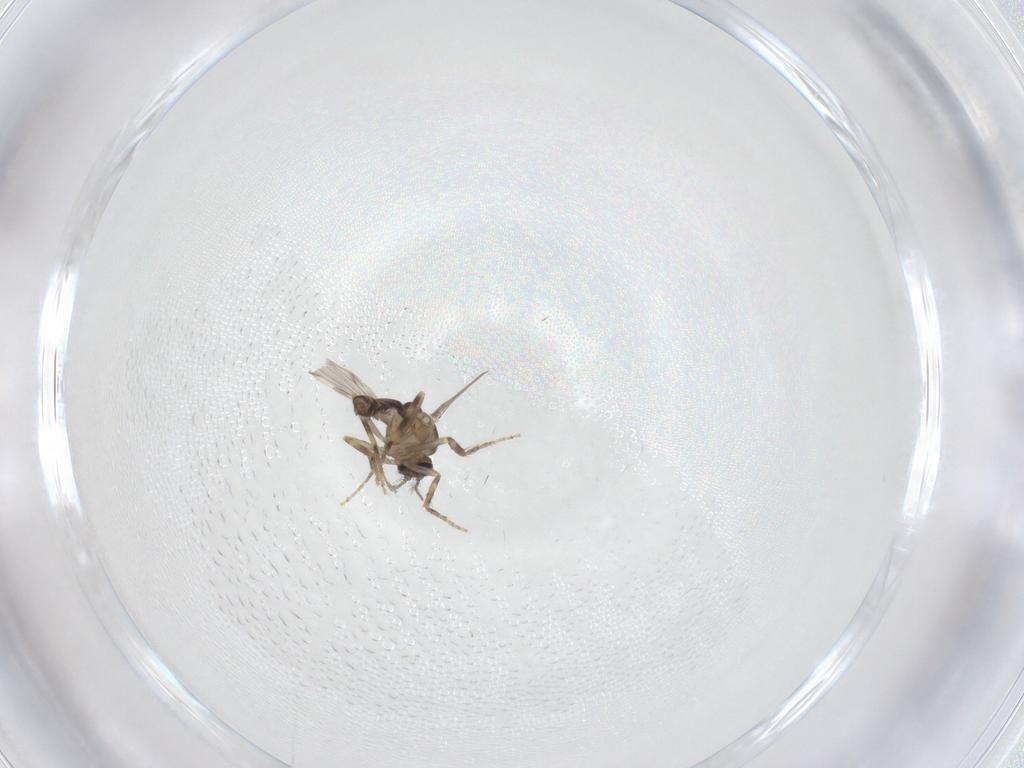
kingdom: Animalia
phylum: Arthropoda
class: Insecta
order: Diptera
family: Ceratopogonidae
